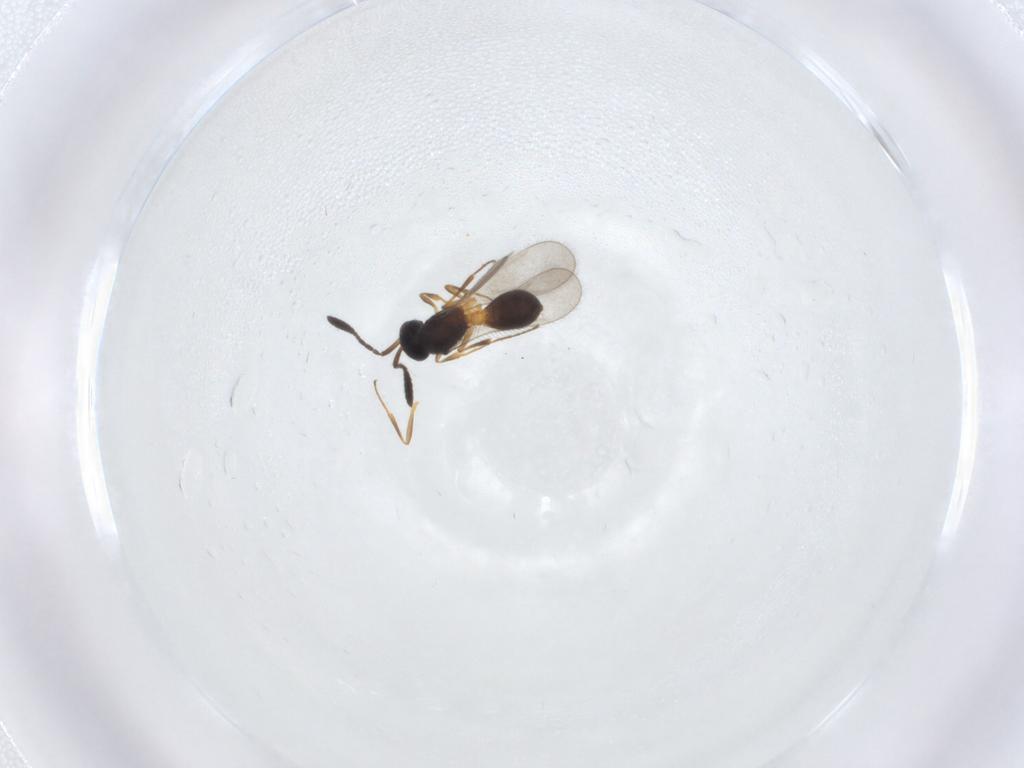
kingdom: Animalia
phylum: Arthropoda
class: Insecta
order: Hymenoptera
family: Scelionidae
